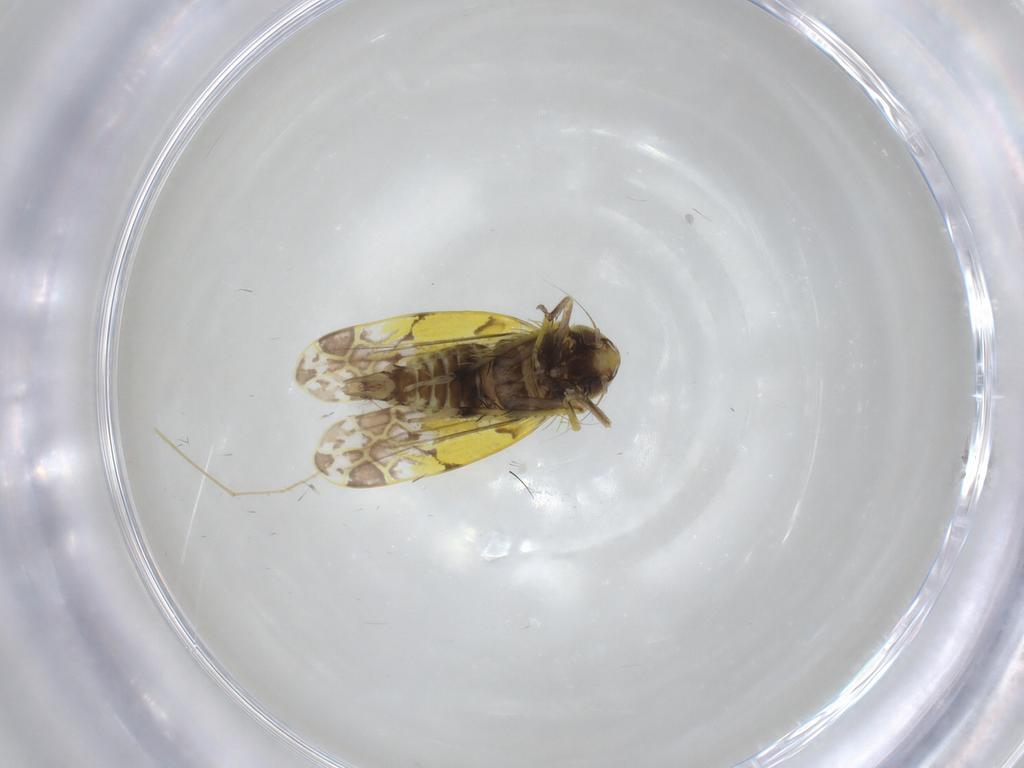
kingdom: Animalia
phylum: Arthropoda
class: Insecta
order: Hemiptera
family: Cicadellidae
